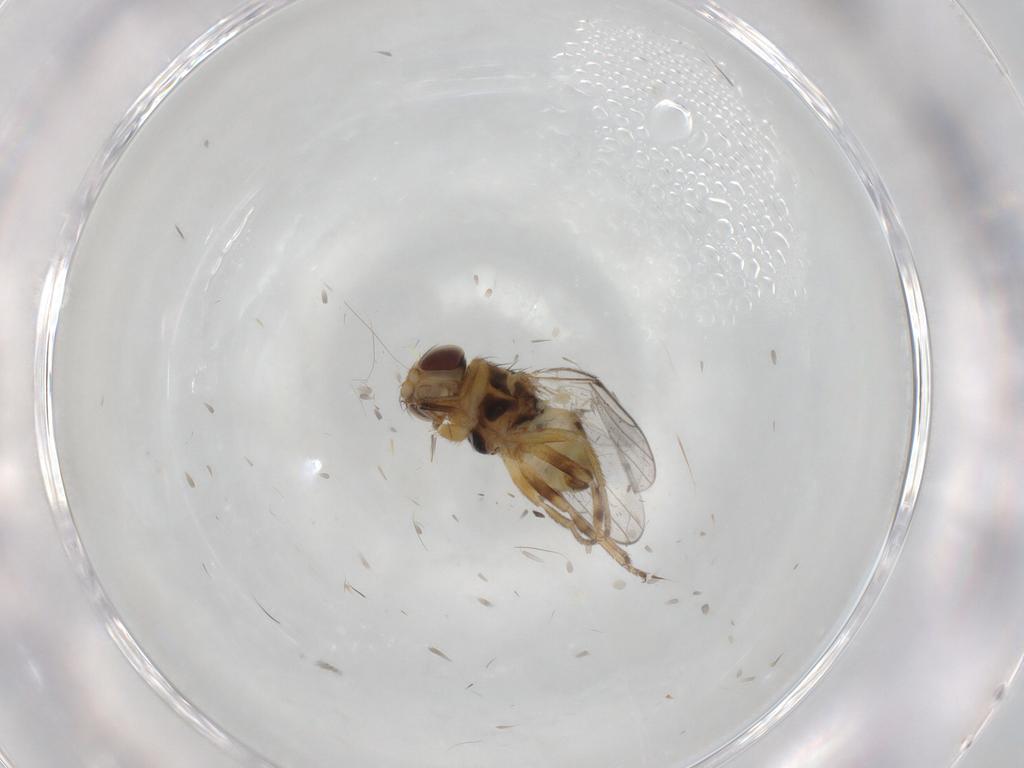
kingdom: Animalia
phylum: Arthropoda
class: Insecta
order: Diptera
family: Chloropidae
